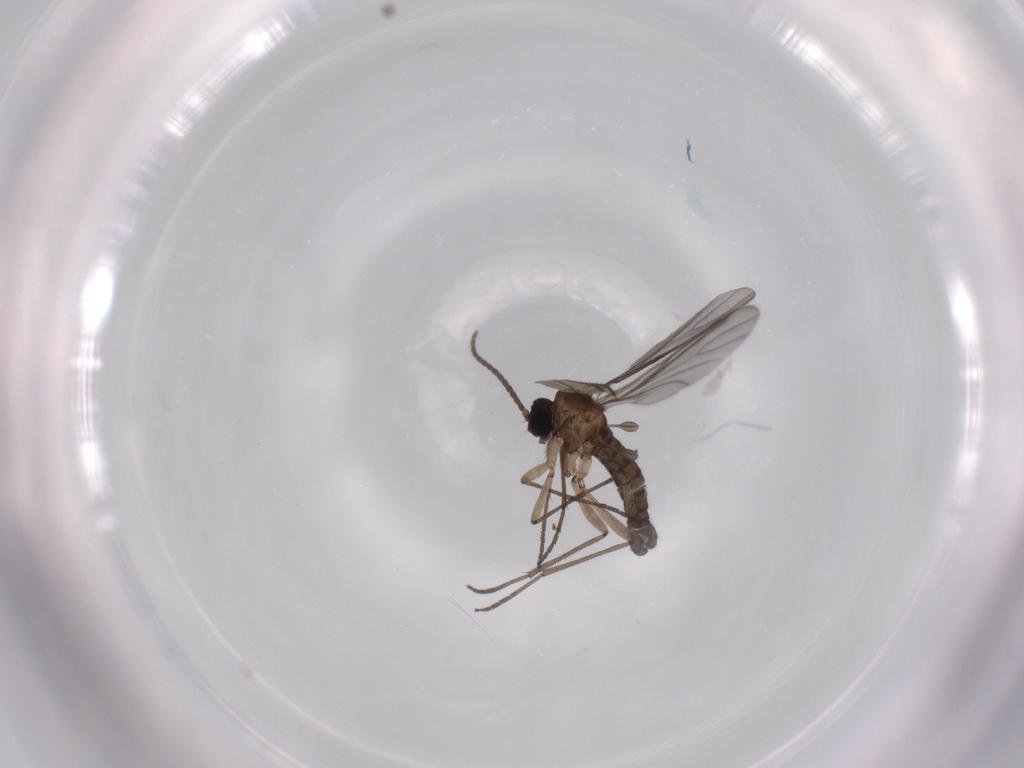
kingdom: Animalia
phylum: Arthropoda
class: Insecta
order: Diptera
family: Sciaridae
